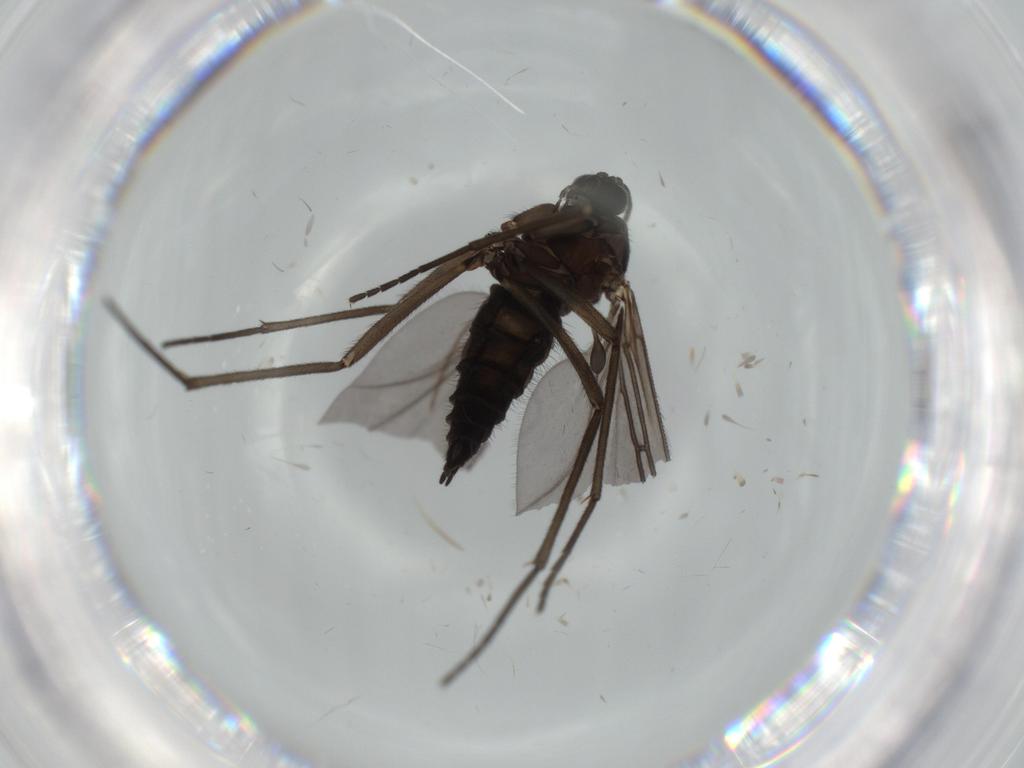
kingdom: Animalia
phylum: Arthropoda
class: Insecta
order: Diptera
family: Sciaridae
